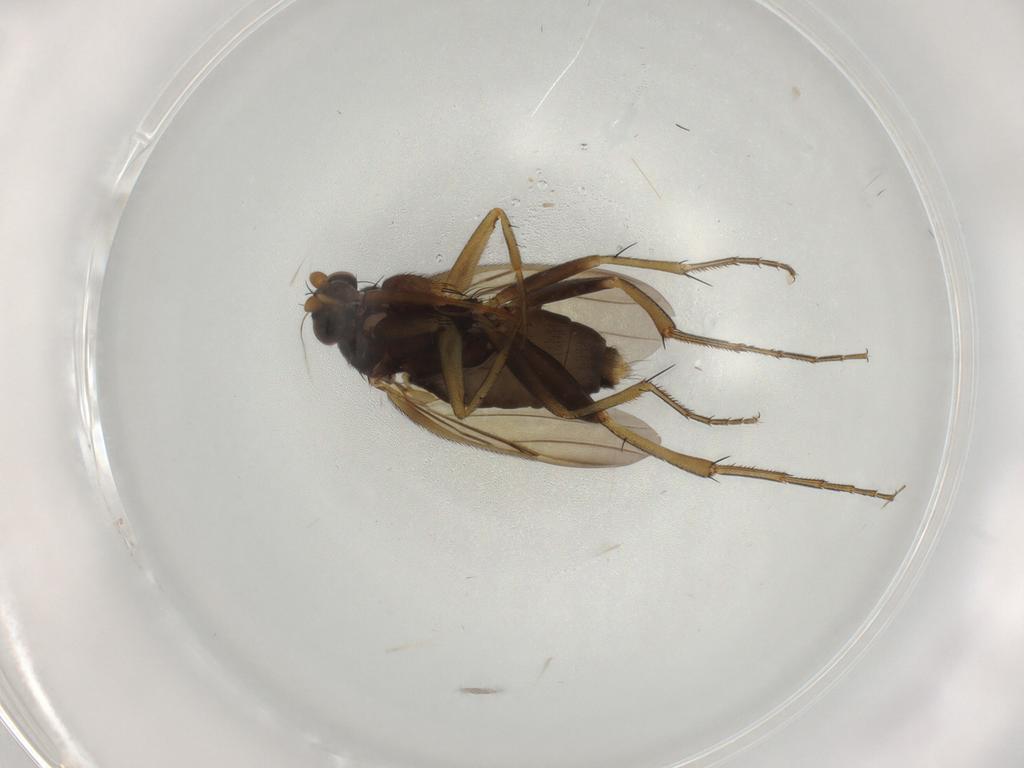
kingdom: Animalia
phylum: Arthropoda
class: Insecta
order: Diptera
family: Phoridae
